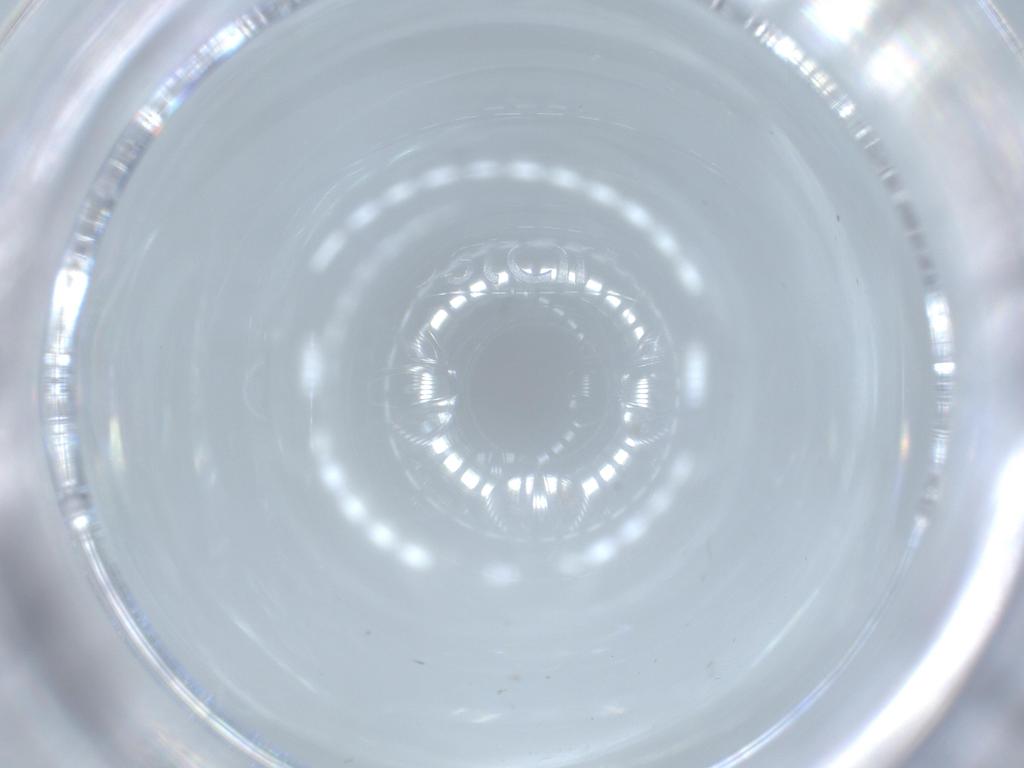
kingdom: Animalia
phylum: Arthropoda
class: Insecta
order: Diptera
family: Cecidomyiidae
